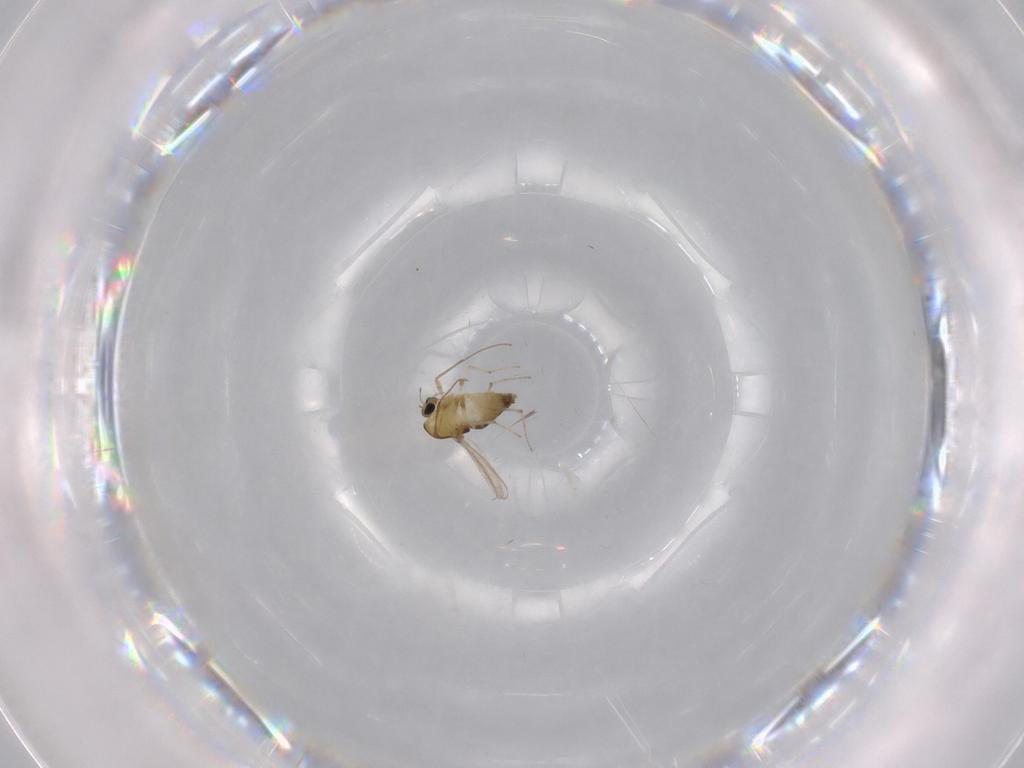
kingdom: Animalia
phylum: Arthropoda
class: Insecta
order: Diptera
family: Chironomidae
